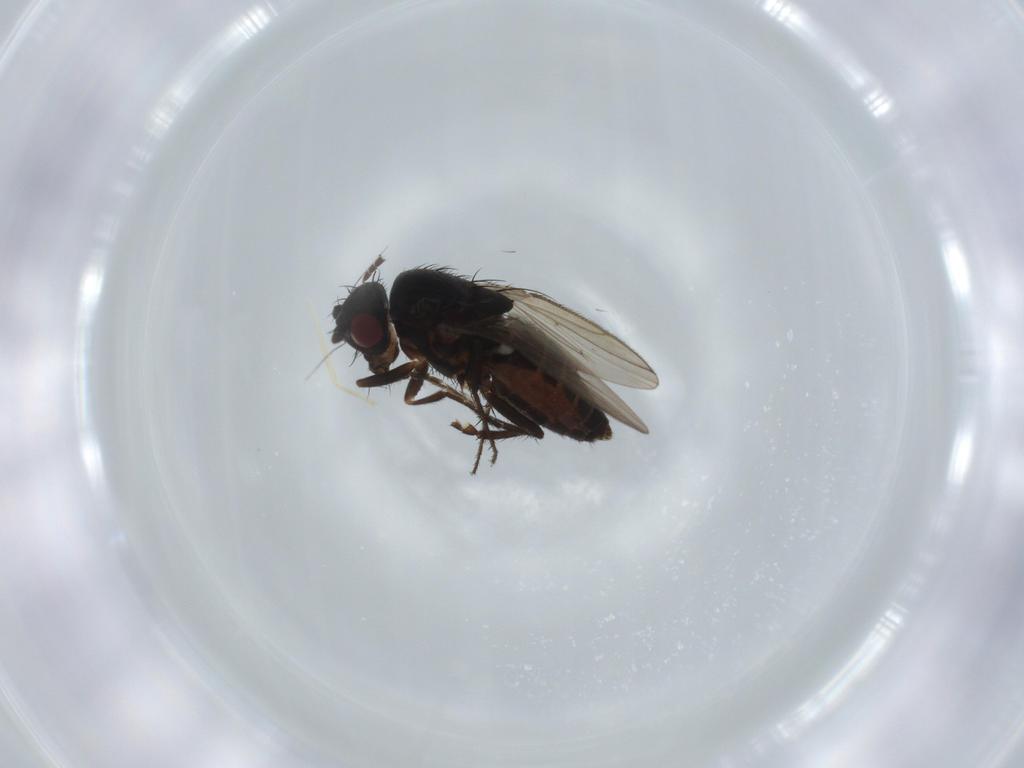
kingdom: Animalia
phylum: Arthropoda
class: Insecta
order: Diptera
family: Sphaeroceridae
